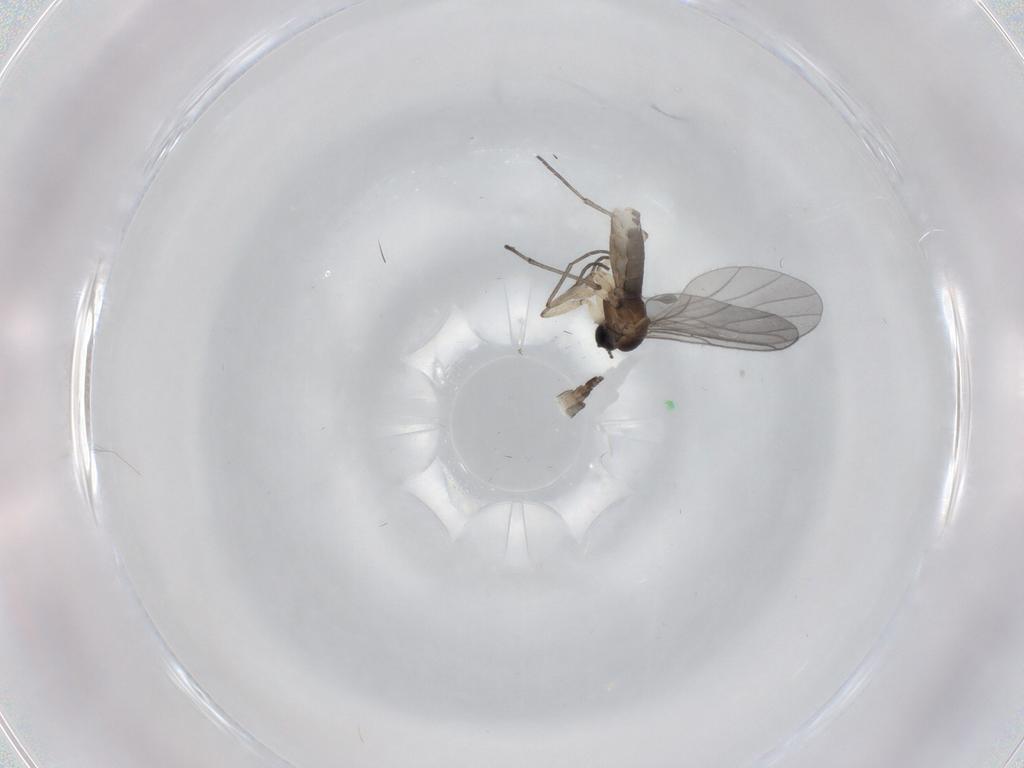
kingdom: Animalia
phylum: Arthropoda
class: Insecta
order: Diptera
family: Sciaridae
